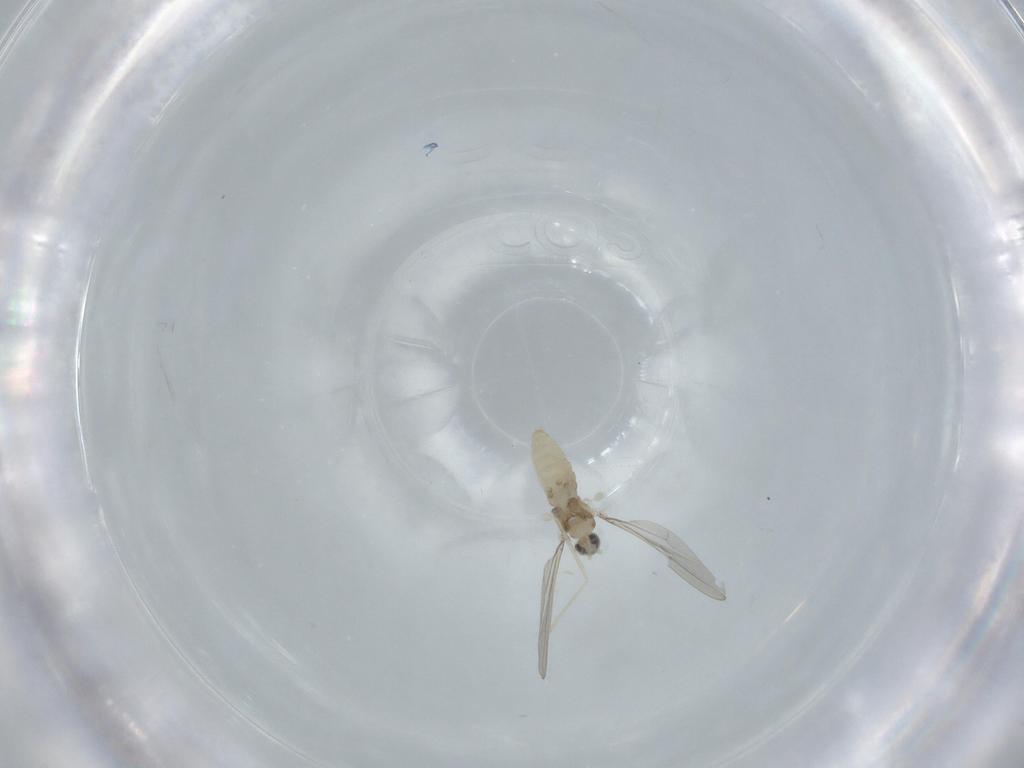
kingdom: Animalia
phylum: Arthropoda
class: Insecta
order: Diptera
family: Cecidomyiidae
